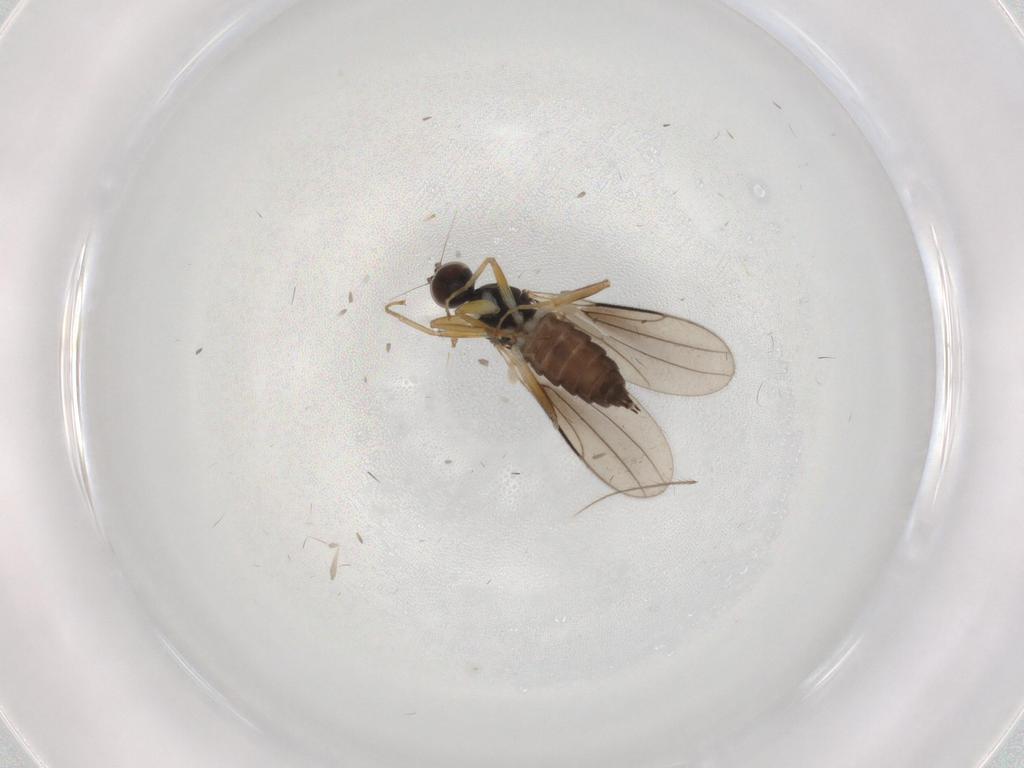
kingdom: Animalia
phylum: Arthropoda
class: Insecta
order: Diptera
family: Hybotidae
